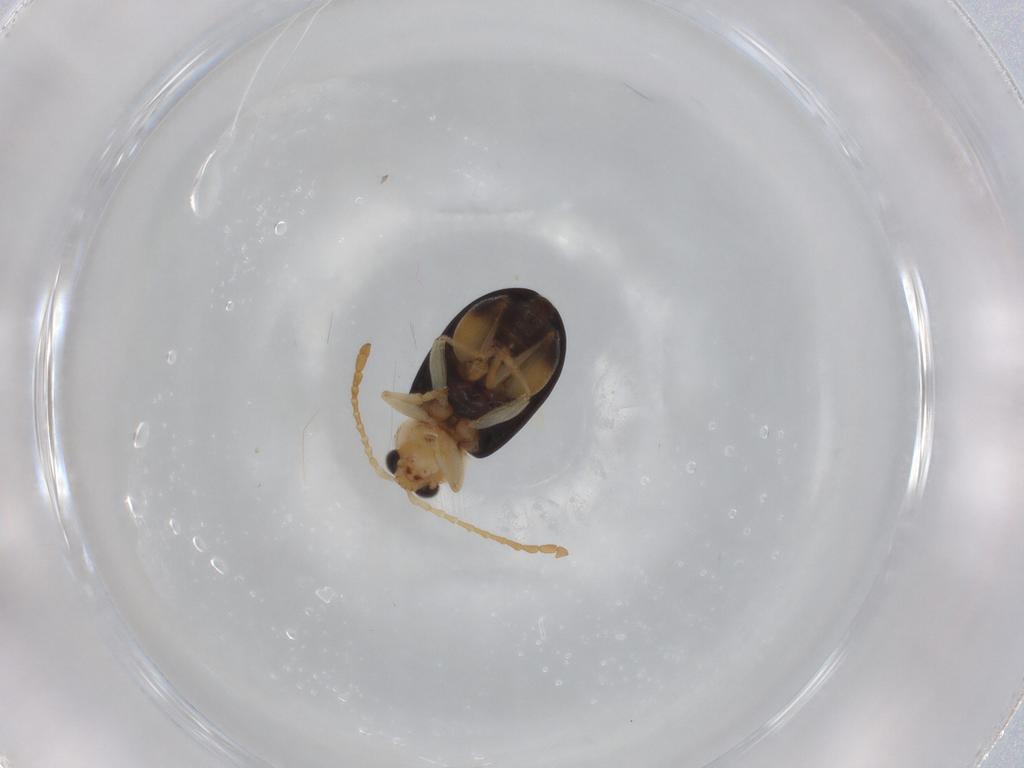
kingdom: Animalia
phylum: Arthropoda
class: Insecta
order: Coleoptera
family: Chrysomelidae
